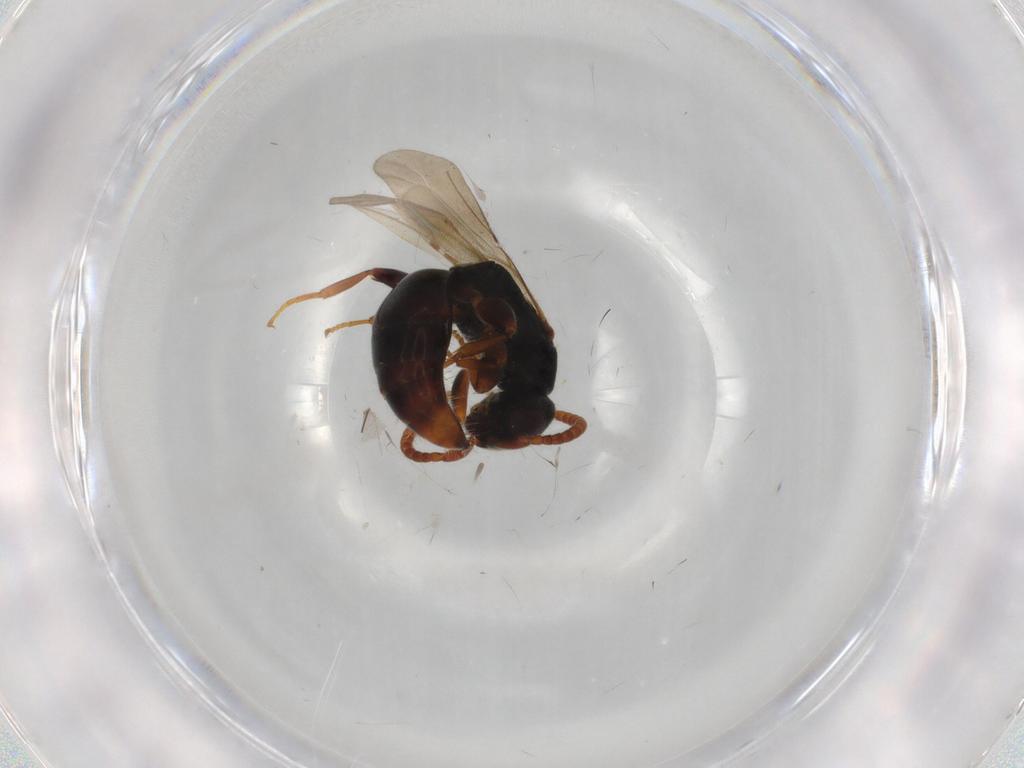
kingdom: Animalia
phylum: Arthropoda
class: Insecta
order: Hymenoptera
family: Bethylidae
